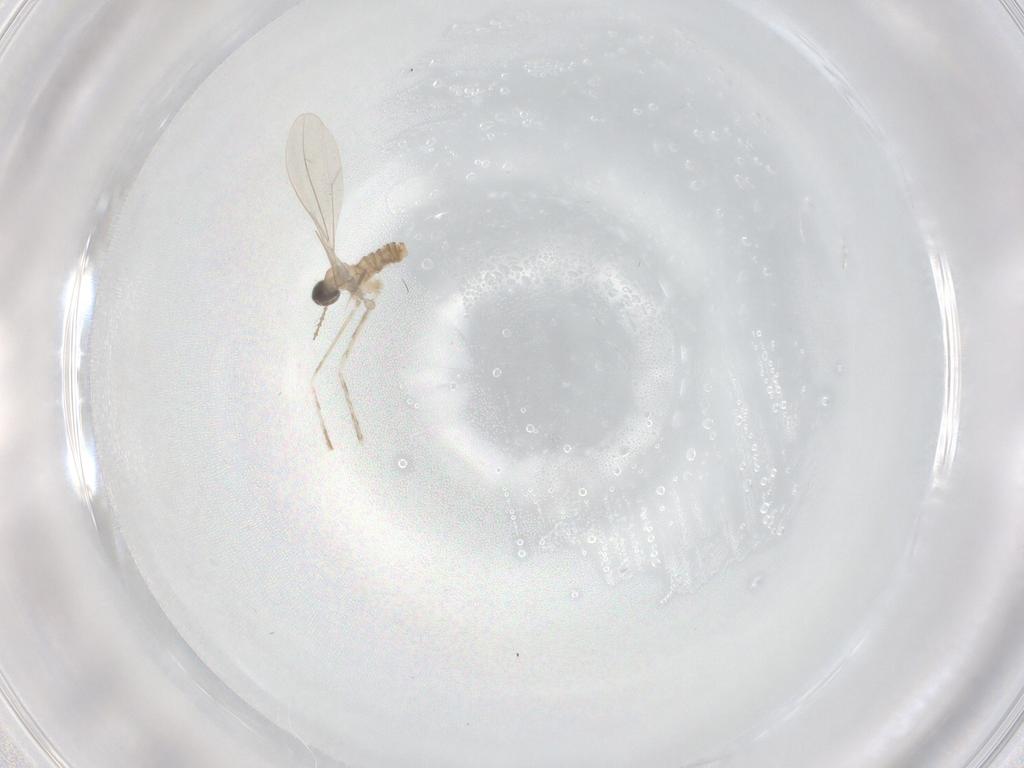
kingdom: Animalia
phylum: Arthropoda
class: Insecta
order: Diptera
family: Cecidomyiidae
